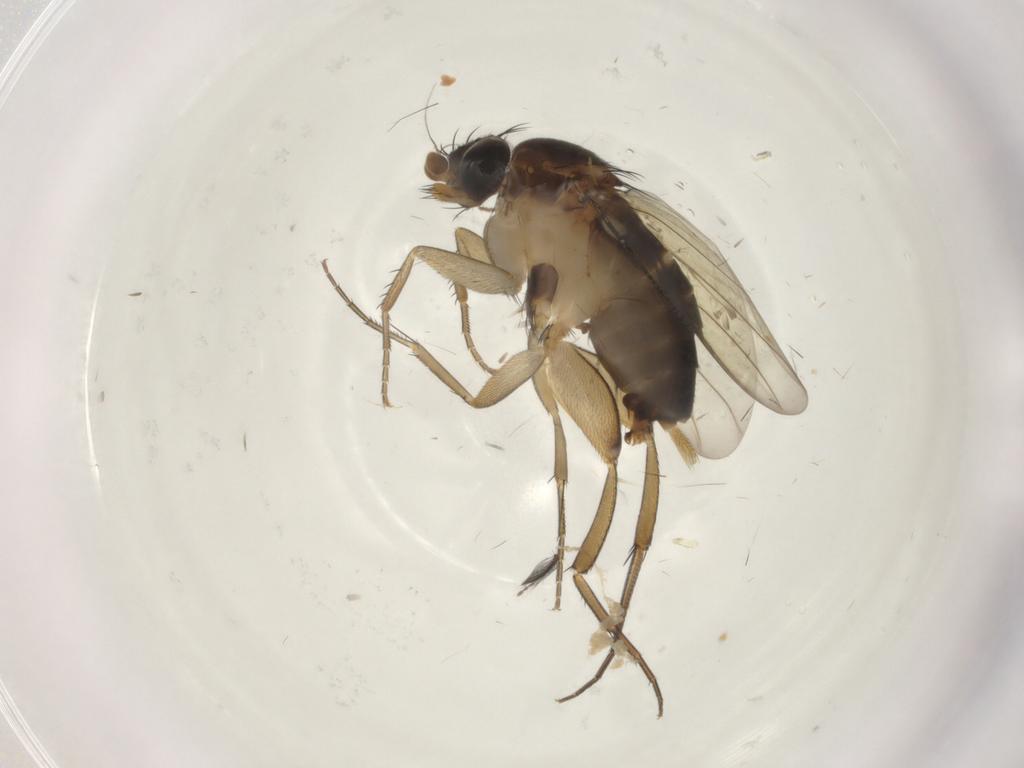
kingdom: Animalia
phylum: Arthropoda
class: Insecta
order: Diptera
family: Phoridae
